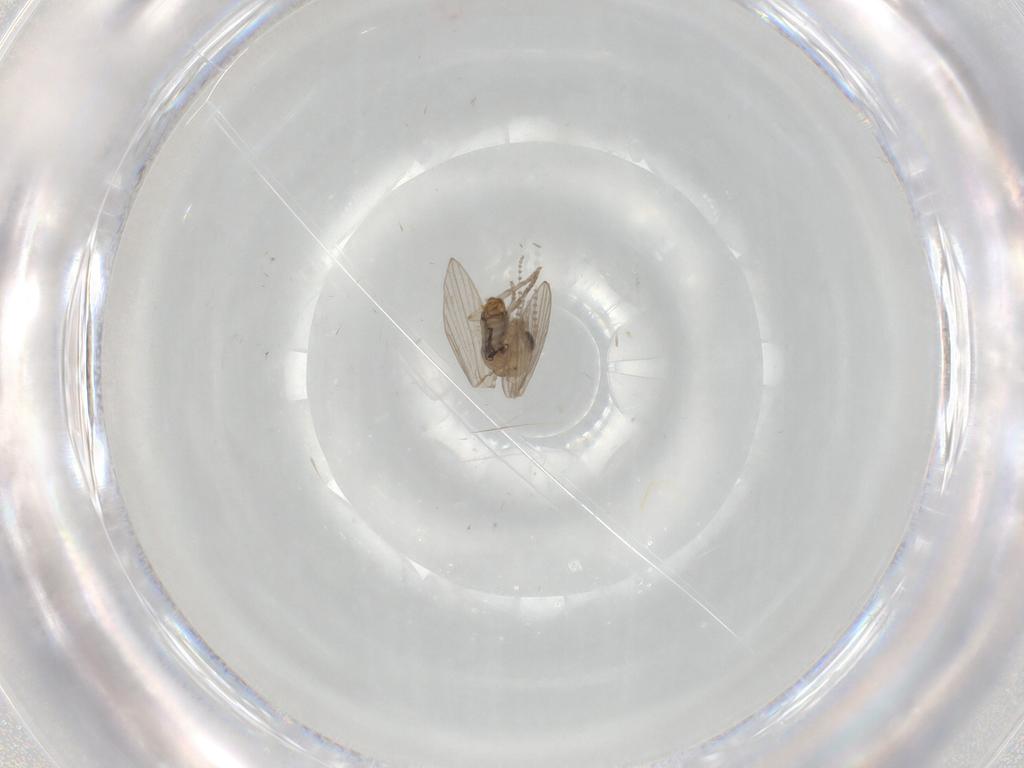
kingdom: Animalia
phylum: Arthropoda
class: Insecta
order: Diptera
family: Psychodidae
